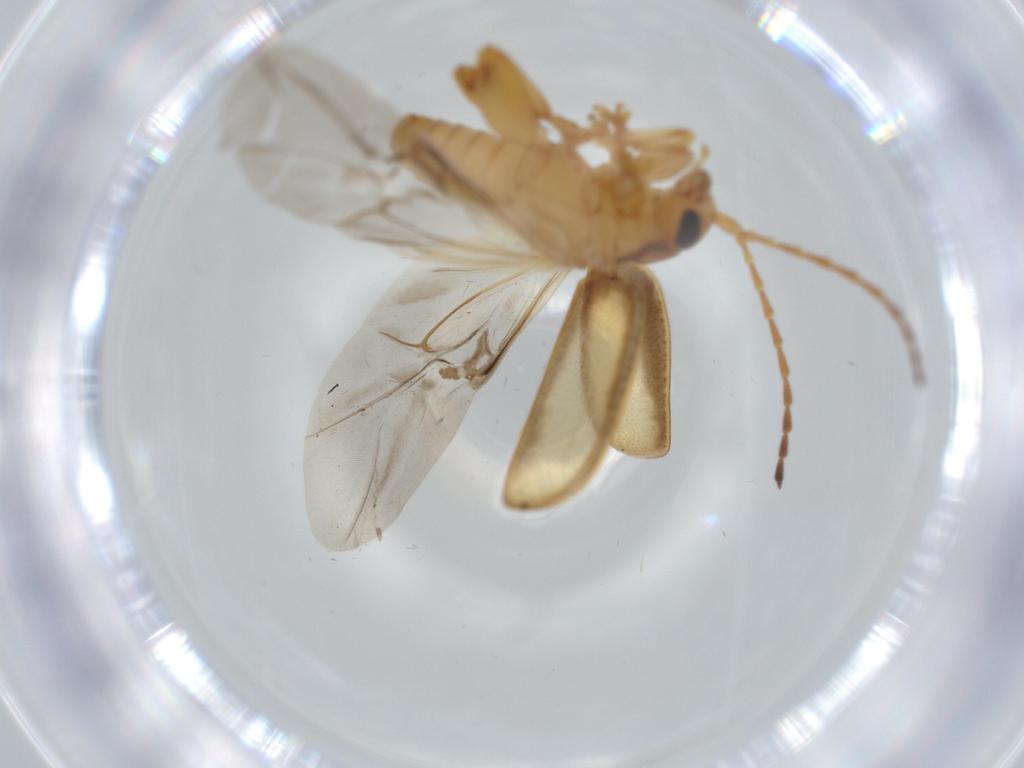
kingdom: Animalia
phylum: Arthropoda
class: Insecta
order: Coleoptera
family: Chrysomelidae
